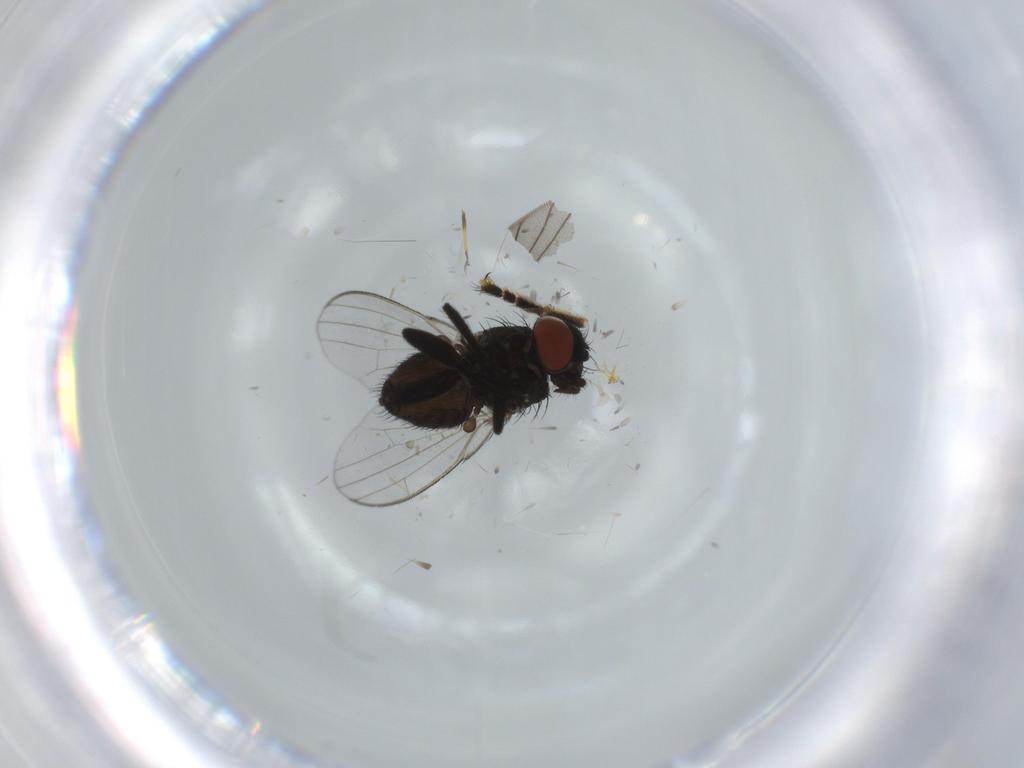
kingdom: Animalia
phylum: Arthropoda
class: Insecta
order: Diptera
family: Milichiidae
